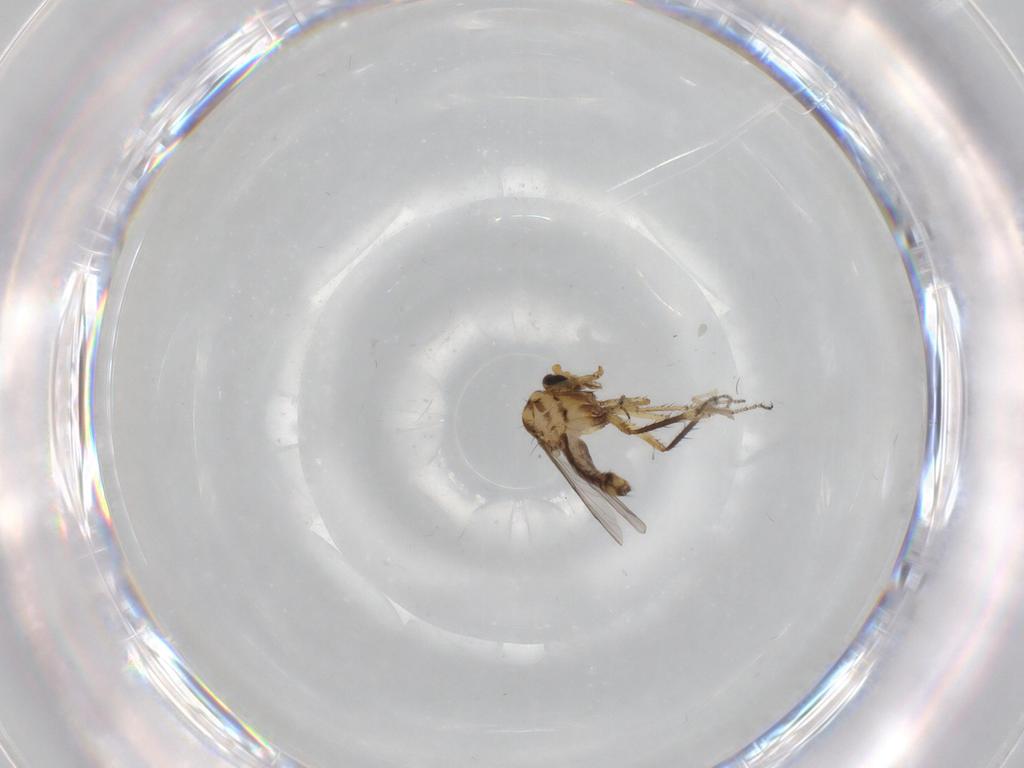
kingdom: Animalia
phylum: Arthropoda
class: Insecta
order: Diptera
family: Ceratopogonidae
